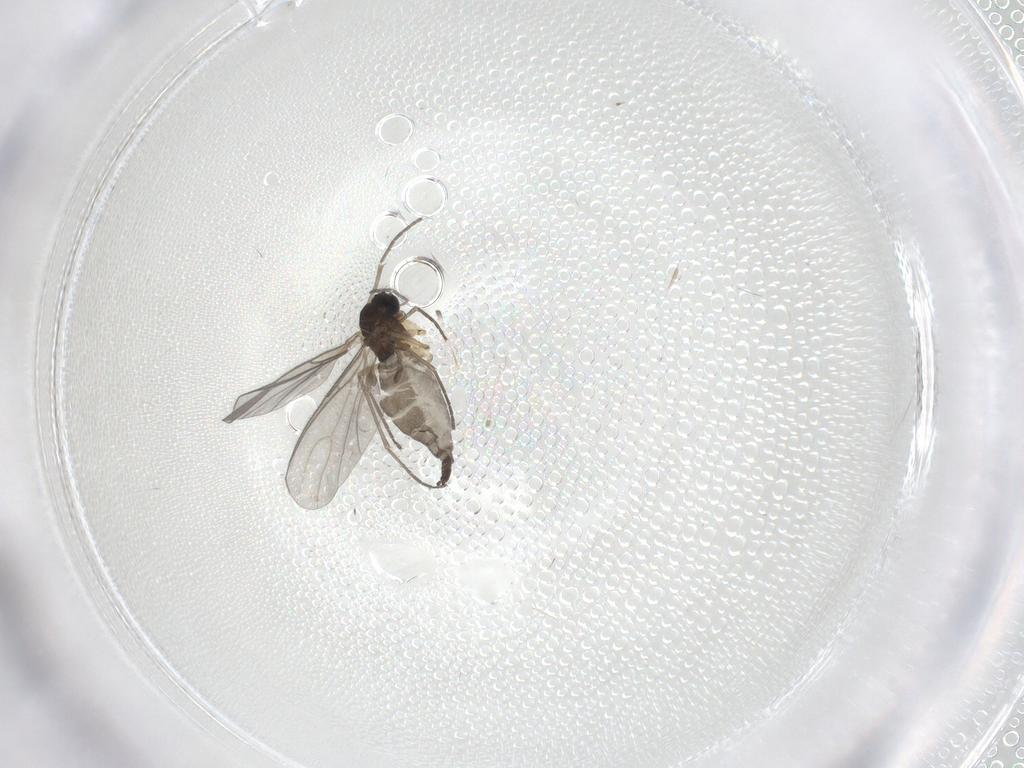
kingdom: Animalia
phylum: Arthropoda
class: Insecta
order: Diptera
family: Sciaridae
